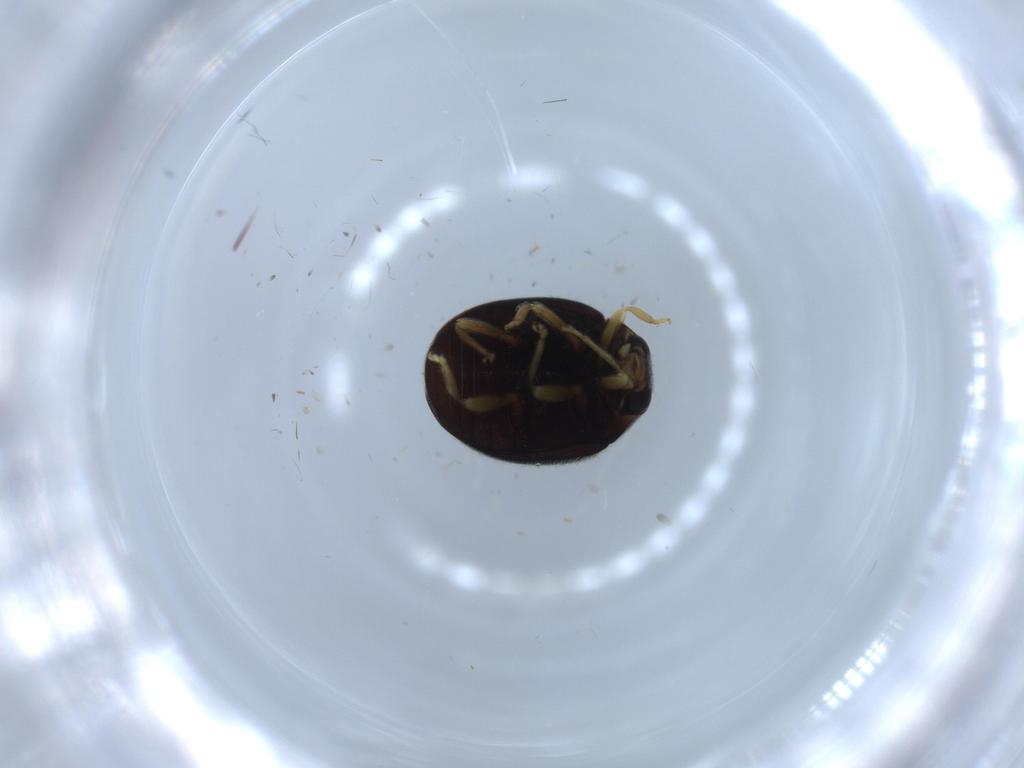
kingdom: Animalia
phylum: Arthropoda
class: Insecta
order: Coleoptera
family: Coccinellidae
